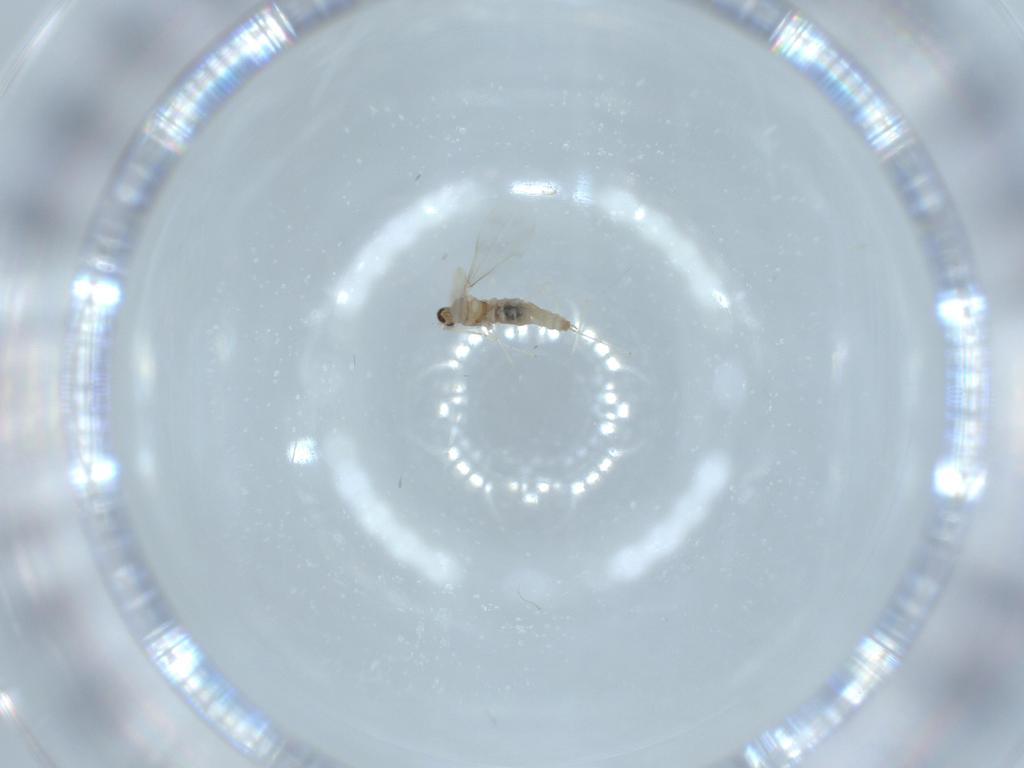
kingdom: Animalia
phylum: Arthropoda
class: Insecta
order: Diptera
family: Cecidomyiidae
